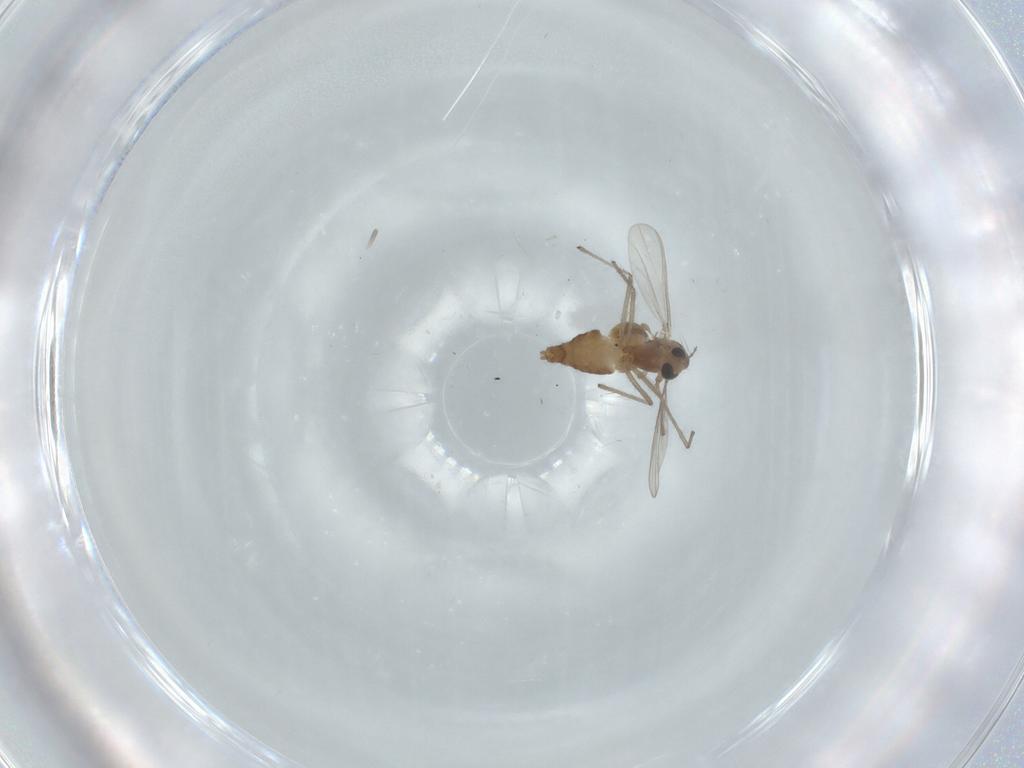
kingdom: Animalia
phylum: Arthropoda
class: Insecta
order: Diptera
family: Chironomidae
